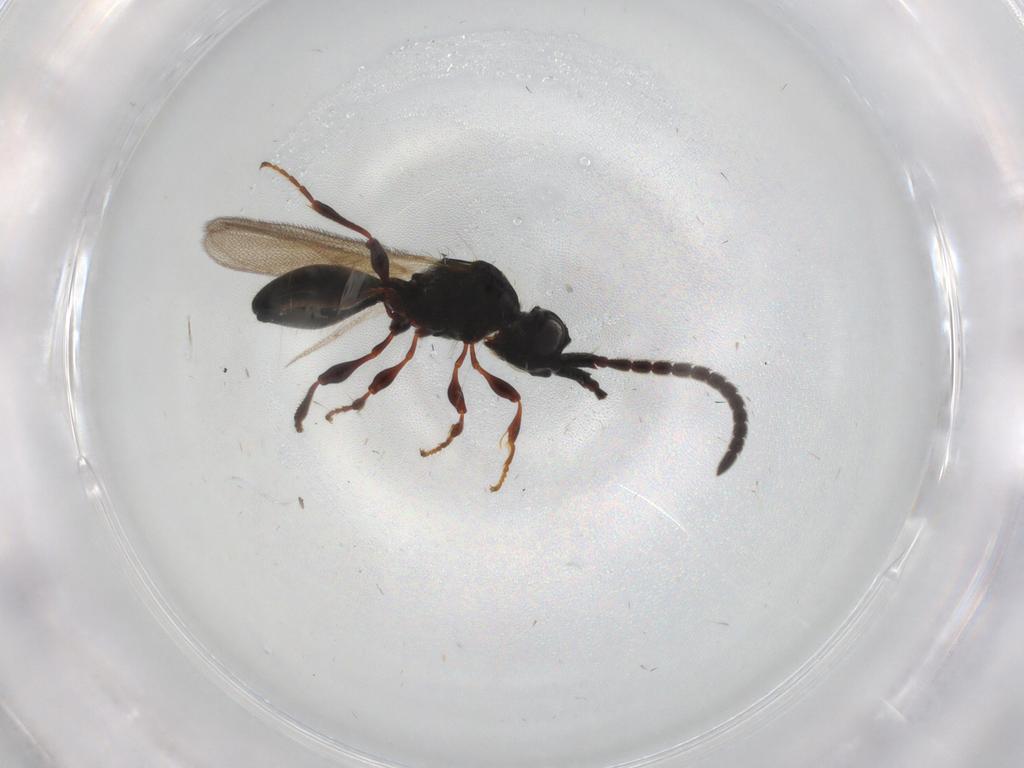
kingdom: Animalia
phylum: Arthropoda
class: Insecta
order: Hymenoptera
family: Diapriidae
